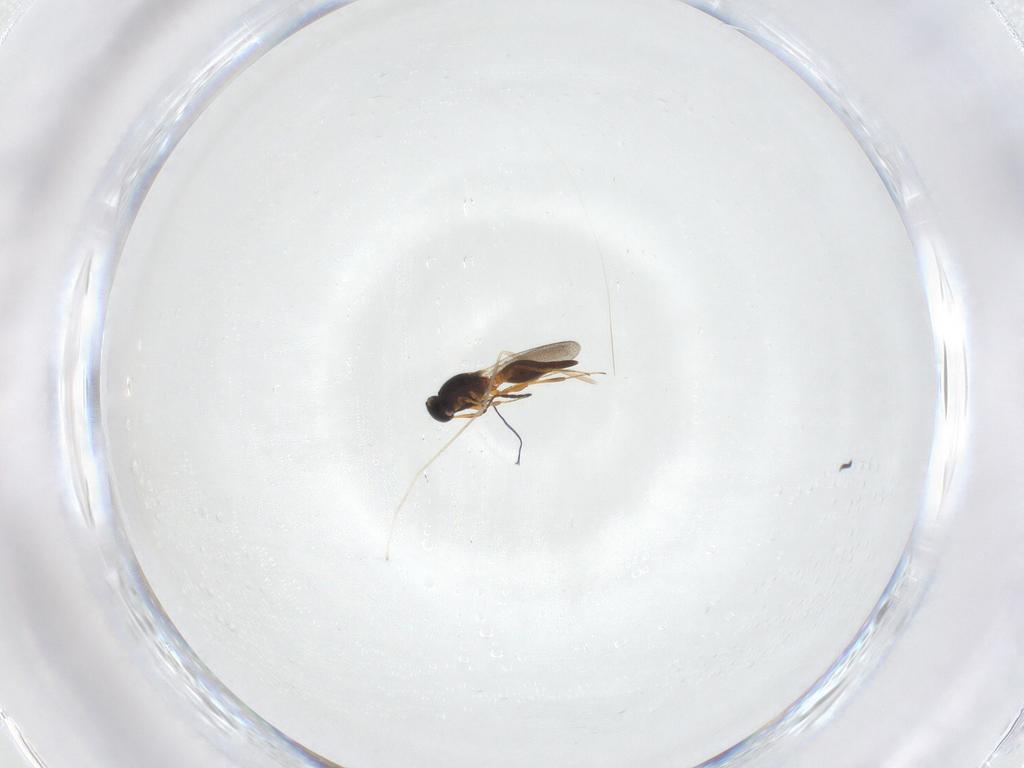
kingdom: Animalia
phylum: Arthropoda
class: Insecta
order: Hymenoptera
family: Platygastridae
